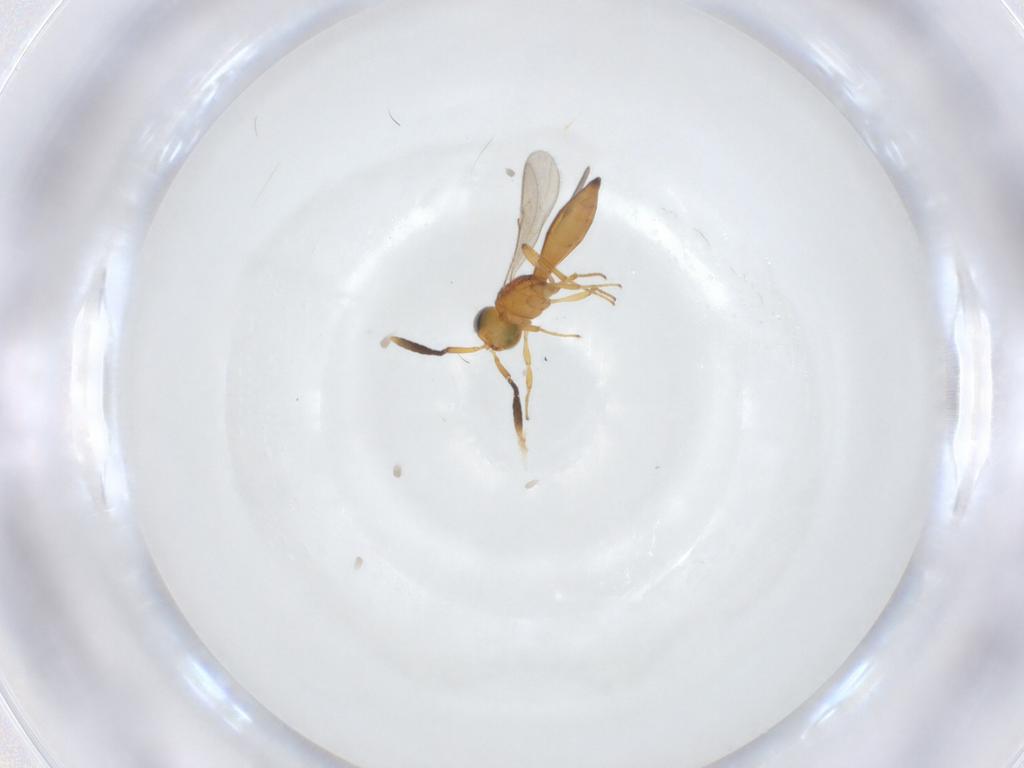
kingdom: Animalia
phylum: Arthropoda
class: Insecta
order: Hymenoptera
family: Scelionidae
